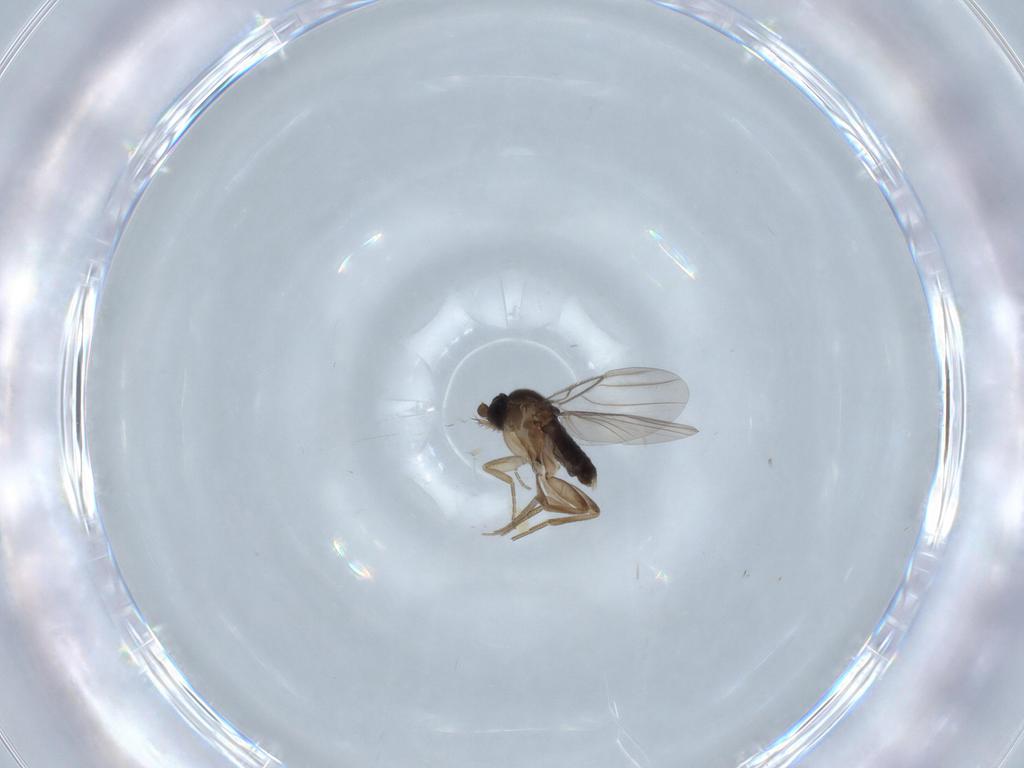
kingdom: Animalia
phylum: Arthropoda
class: Insecta
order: Diptera
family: Phoridae
